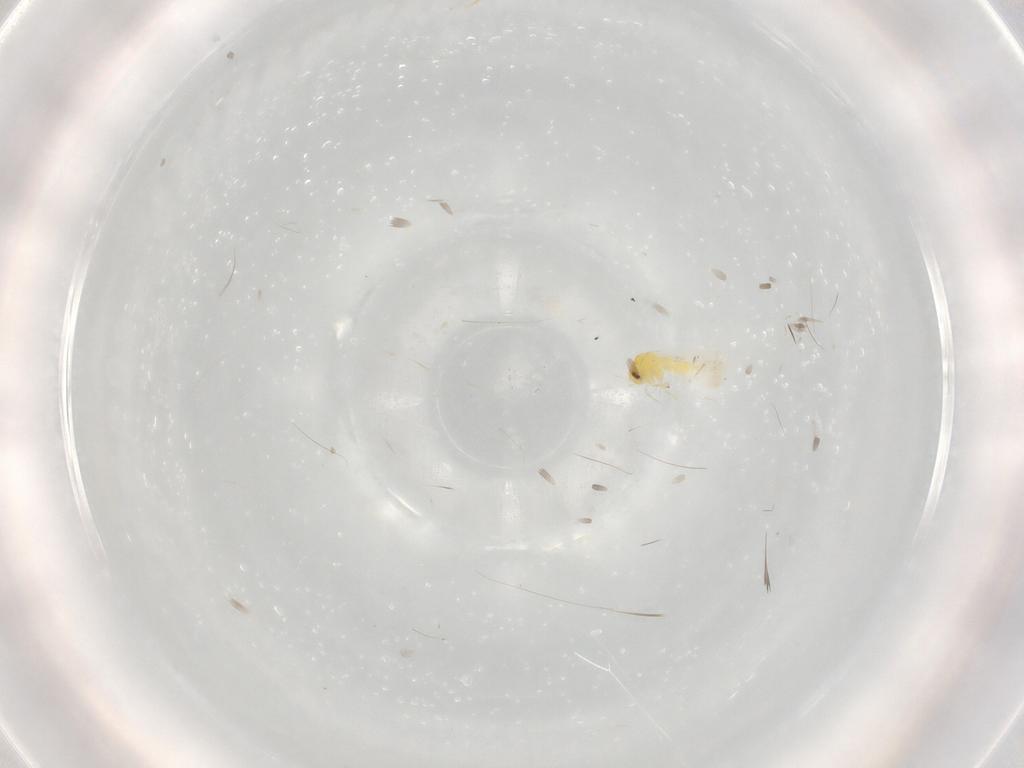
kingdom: Animalia
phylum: Arthropoda
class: Insecta
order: Hemiptera
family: Aleyrodidae
